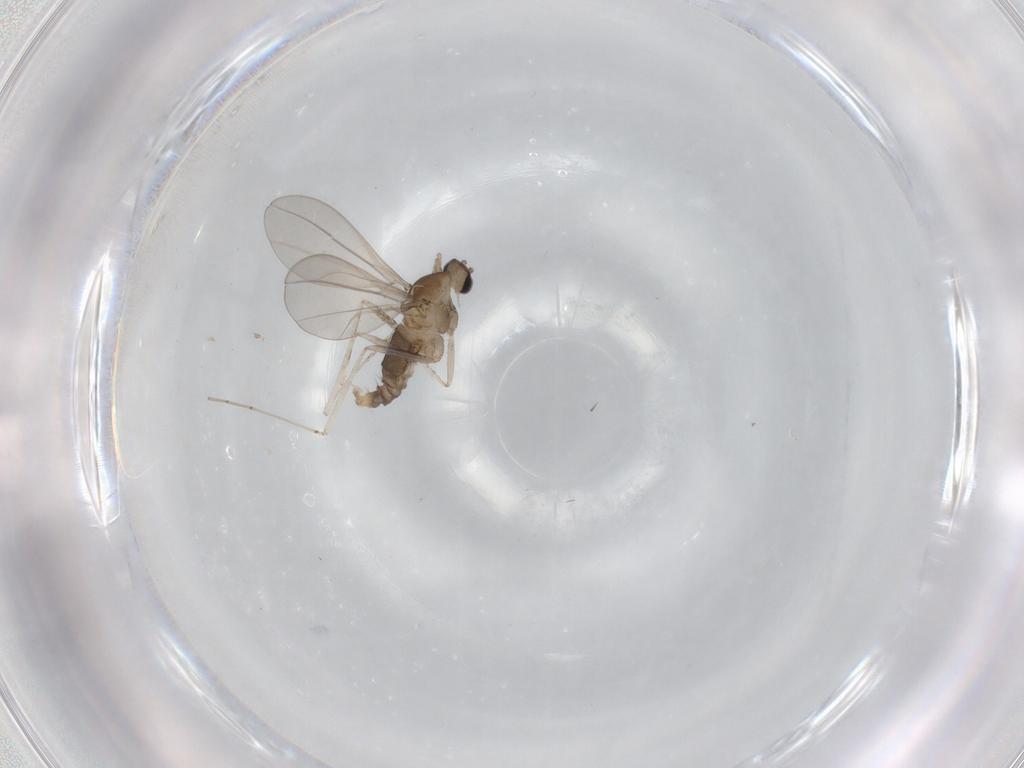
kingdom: Animalia
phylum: Arthropoda
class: Insecta
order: Diptera
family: Cecidomyiidae
